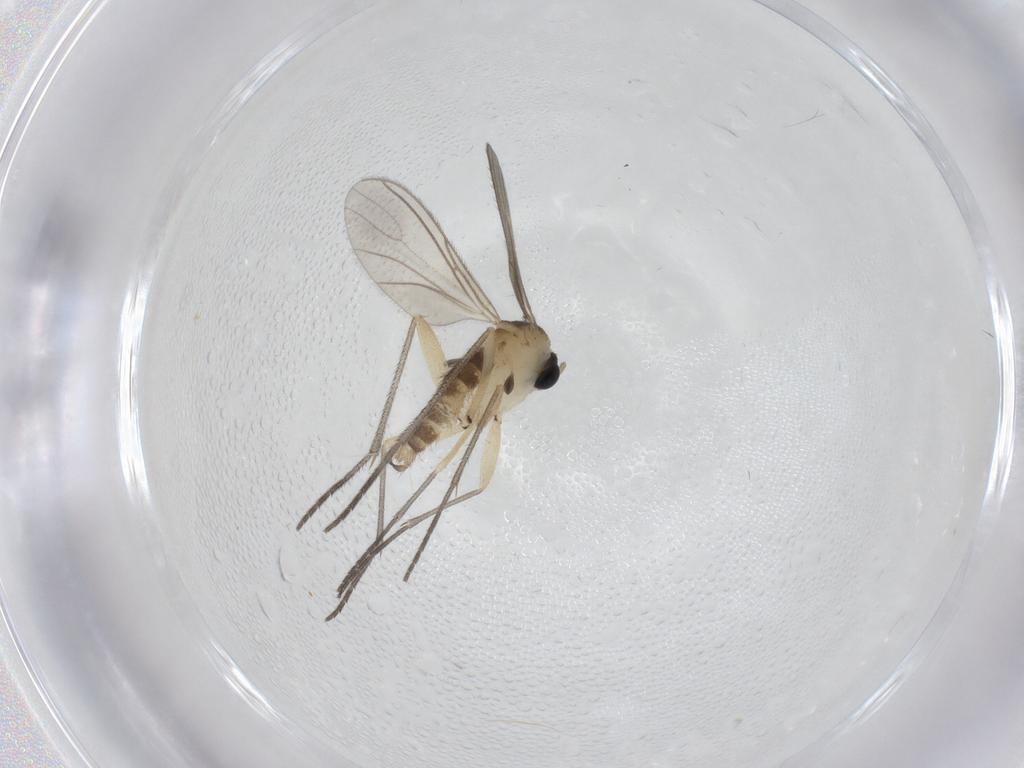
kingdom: Animalia
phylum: Arthropoda
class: Insecta
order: Diptera
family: Sciaridae
